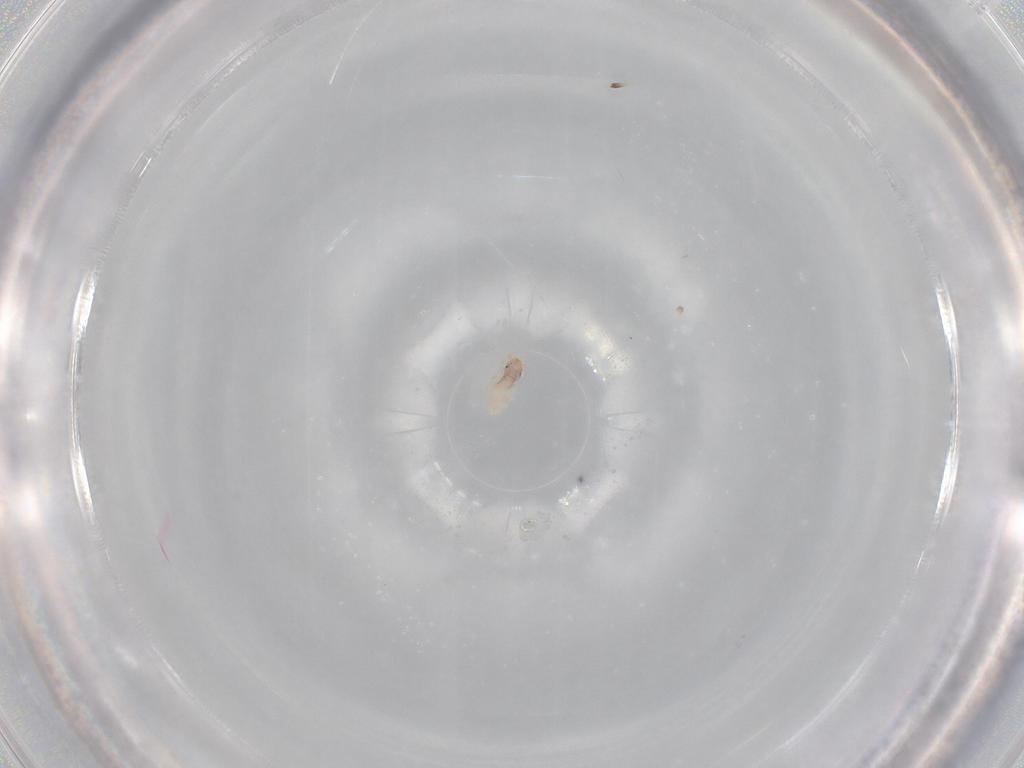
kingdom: Animalia
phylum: Arthropoda
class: Insecta
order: Psocodea
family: Liposcelididae
